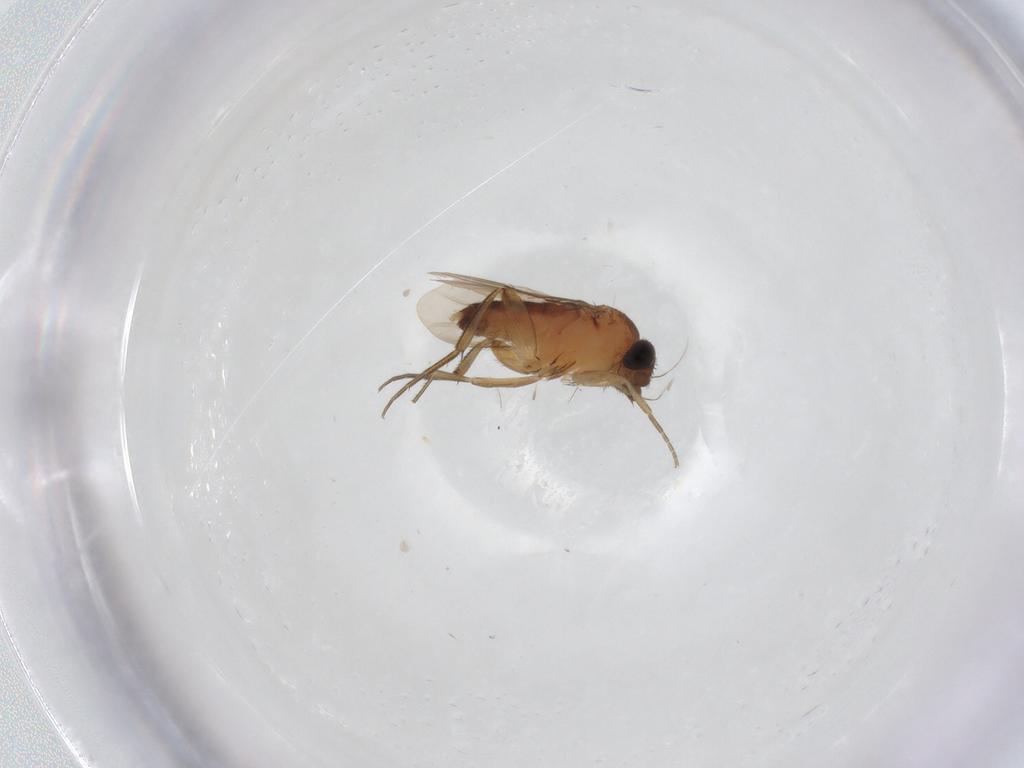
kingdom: Animalia
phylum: Arthropoda
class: Insecta
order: Diptera
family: Phoridae
